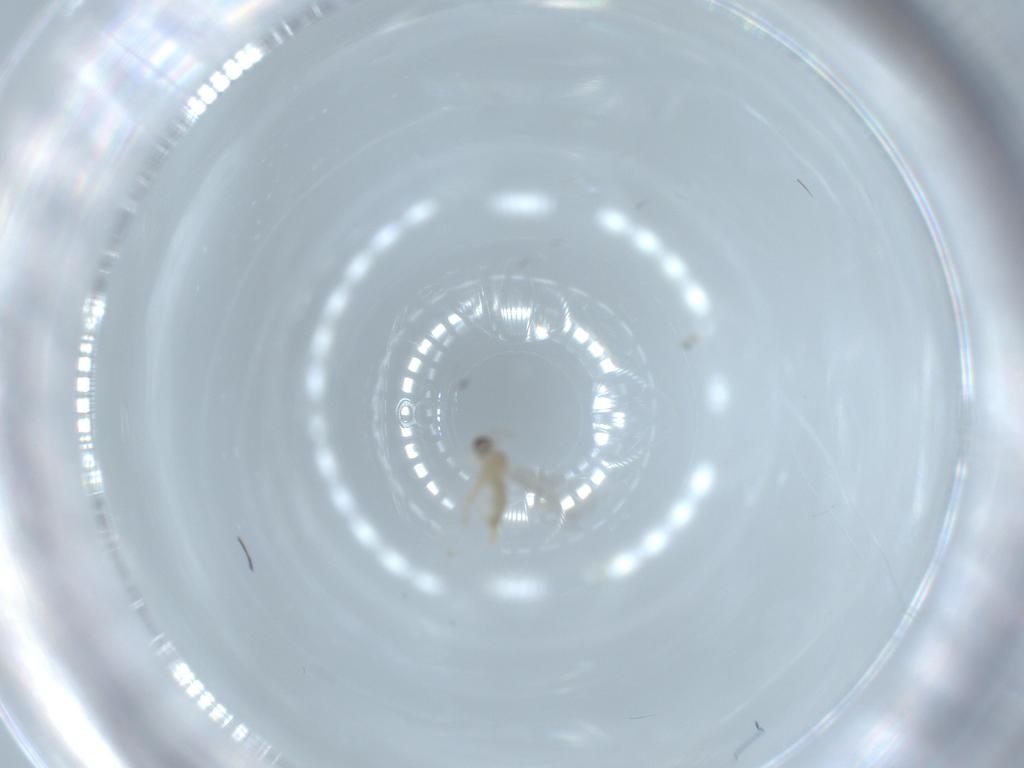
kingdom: Animalia
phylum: Arthropoda
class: Insecta
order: Diptera
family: Cecidomyiidae
